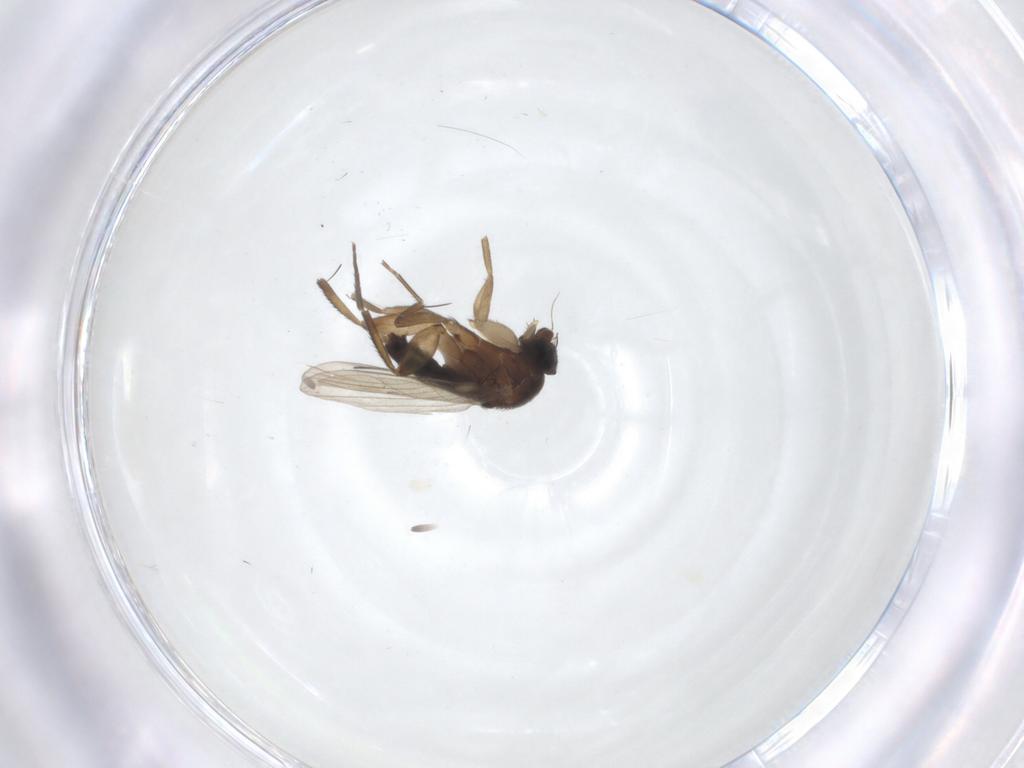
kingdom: Animalia
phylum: Arthropoda
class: Insecta
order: Diptera
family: Phoridae
